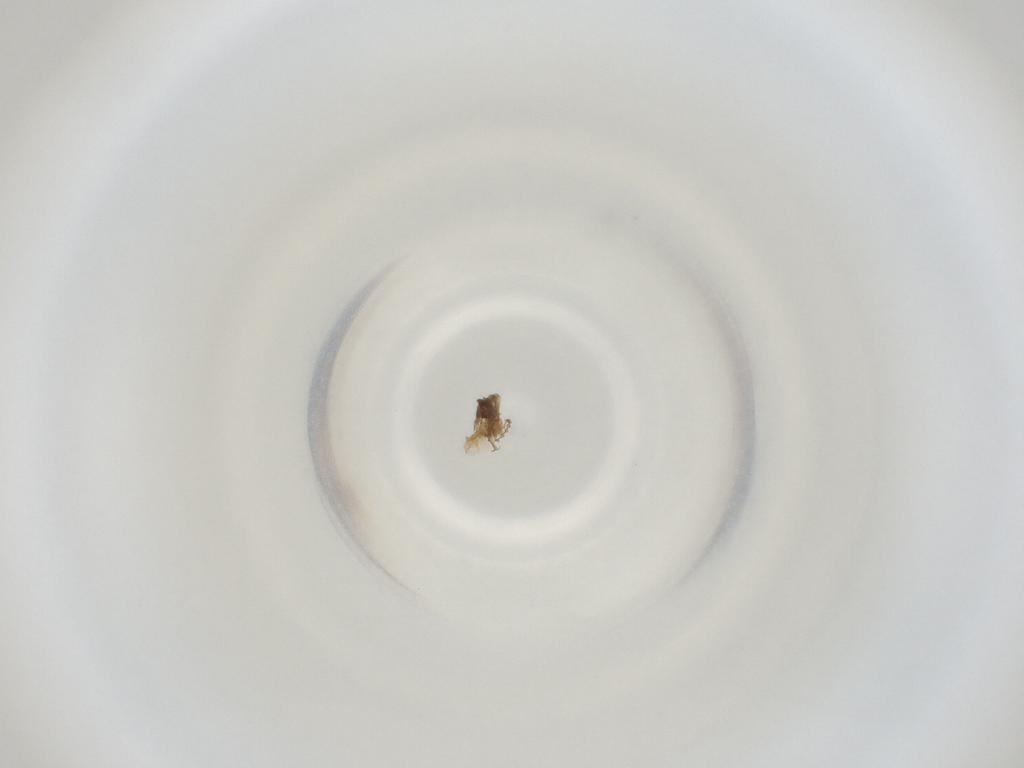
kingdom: Animalia
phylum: Arthropoda
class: Insecta
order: Diptera
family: Cecidomyiidae
